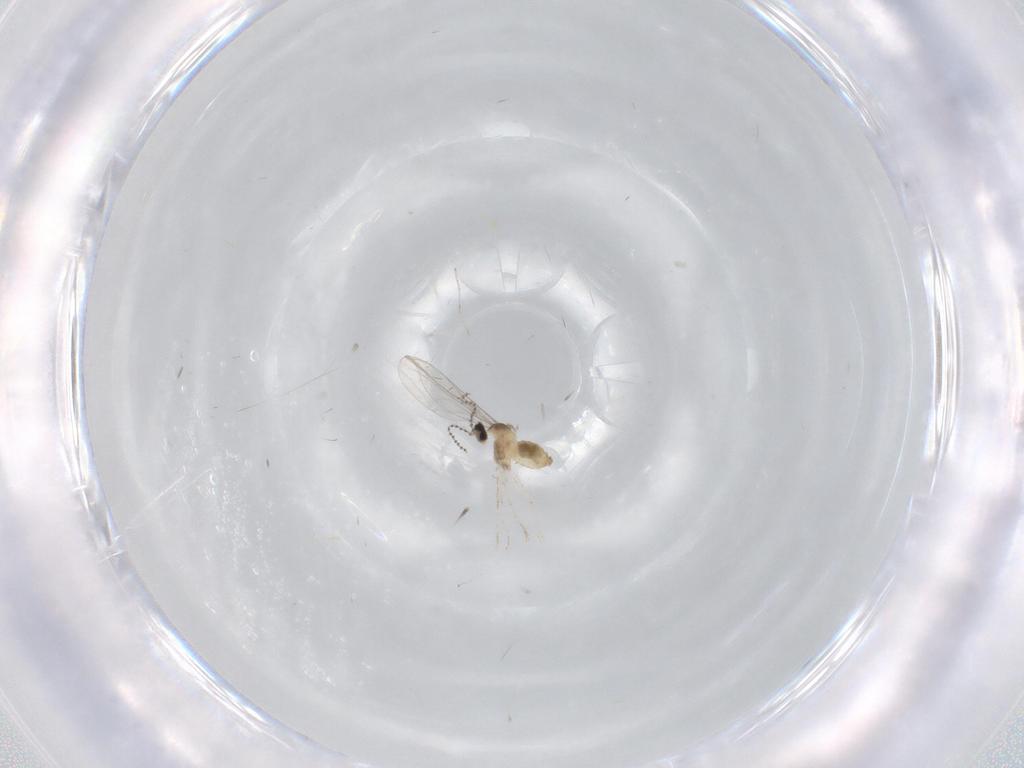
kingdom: Animalia
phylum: Arthropoda
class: Insecta
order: Diptera
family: Cecidomyiidae
